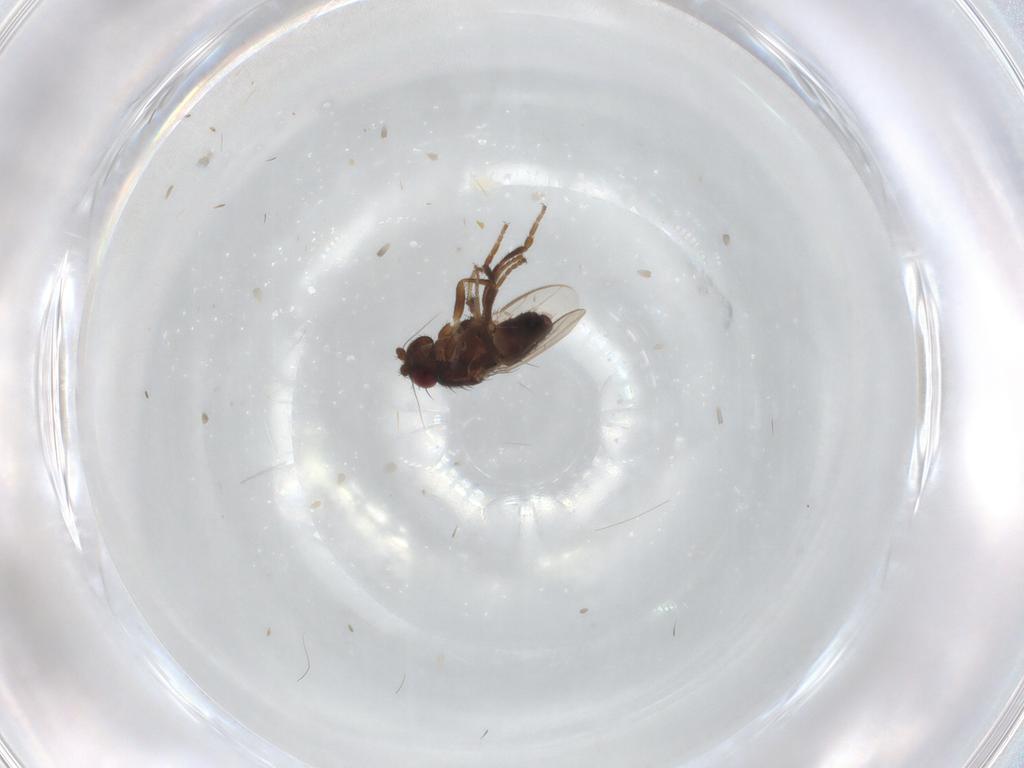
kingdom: Animalia
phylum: Arthropoda
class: Insecta
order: Diptera
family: Sphaeroceridae
